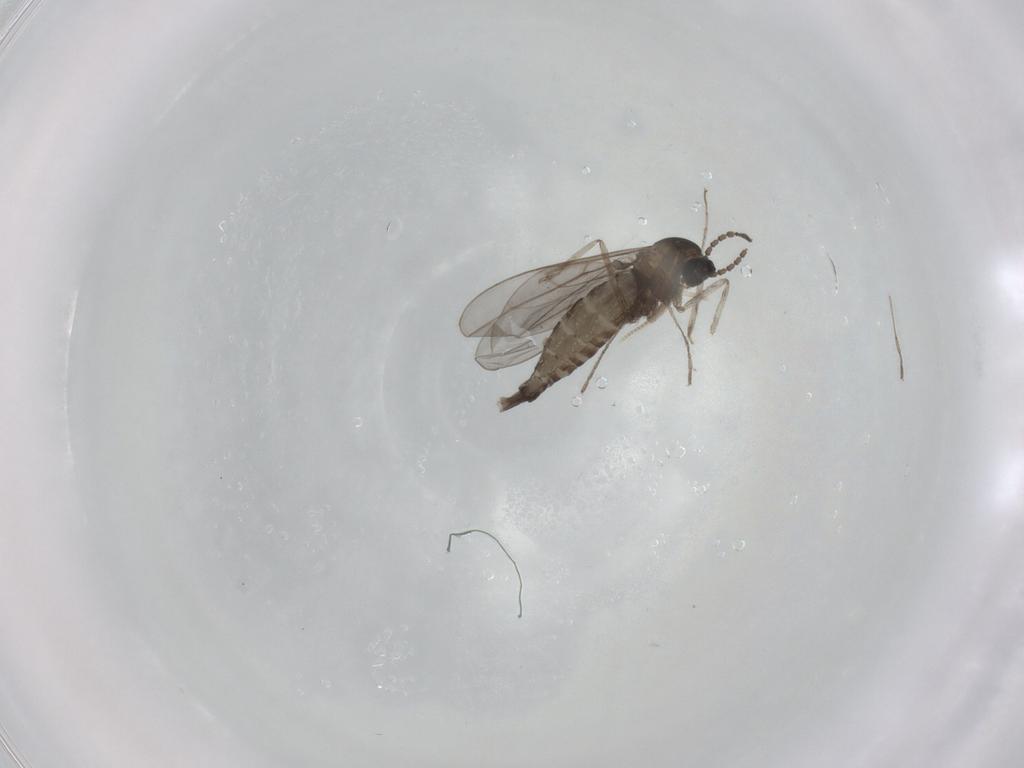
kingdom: Animalia
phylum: Arthropoda
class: Insecta
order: Diptera
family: Cecidomyiidae
